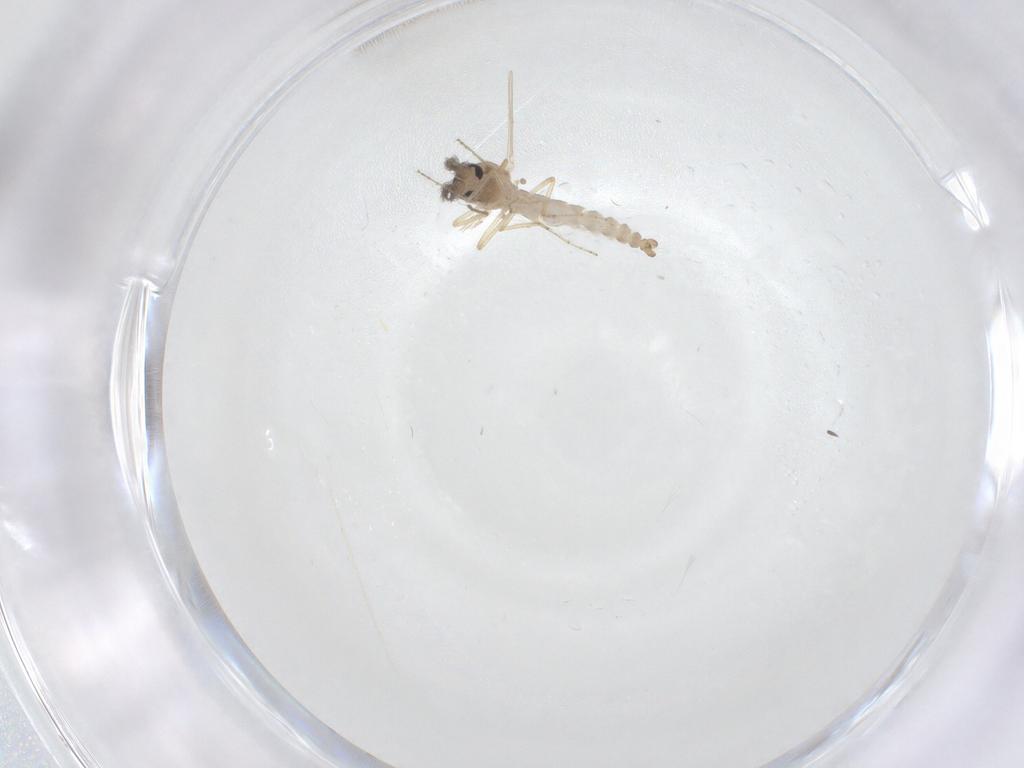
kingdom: Animalia
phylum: Arthropoda
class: Insecta
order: Diptera
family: Ceratopogonidae
